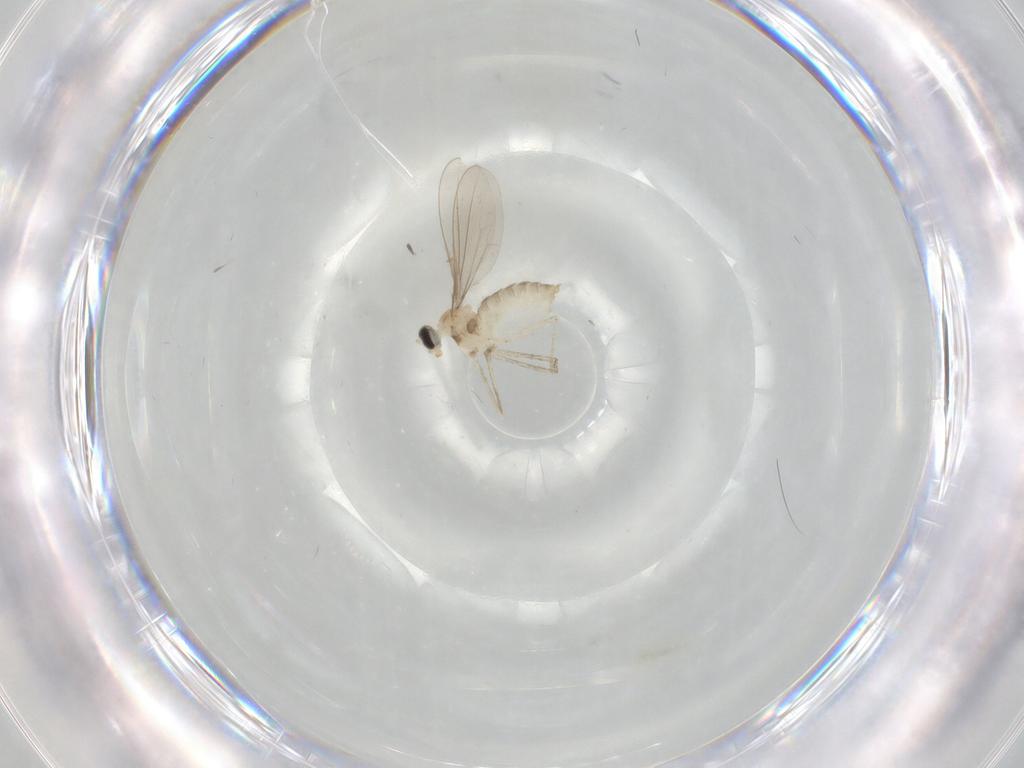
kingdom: Animalia
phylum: Arthropoda
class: Insecta
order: Diptera
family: Cecidomyiidae
